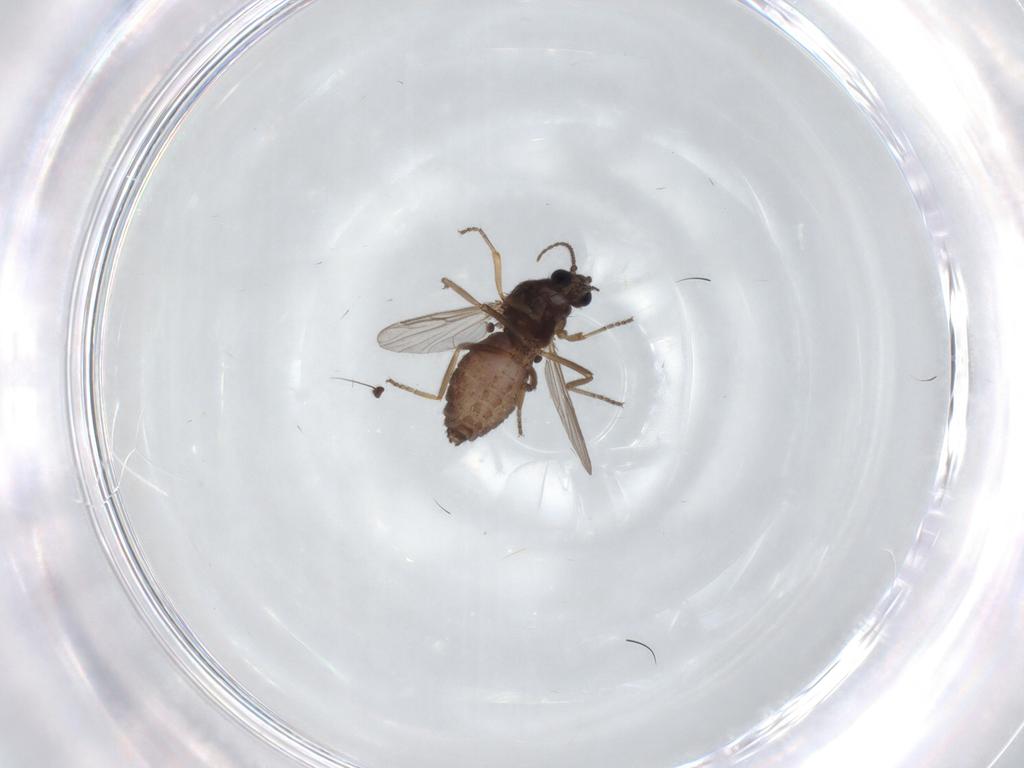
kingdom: Animalia
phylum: Arthropoda
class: Insecta
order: Diptera
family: Ceratopogonidae
